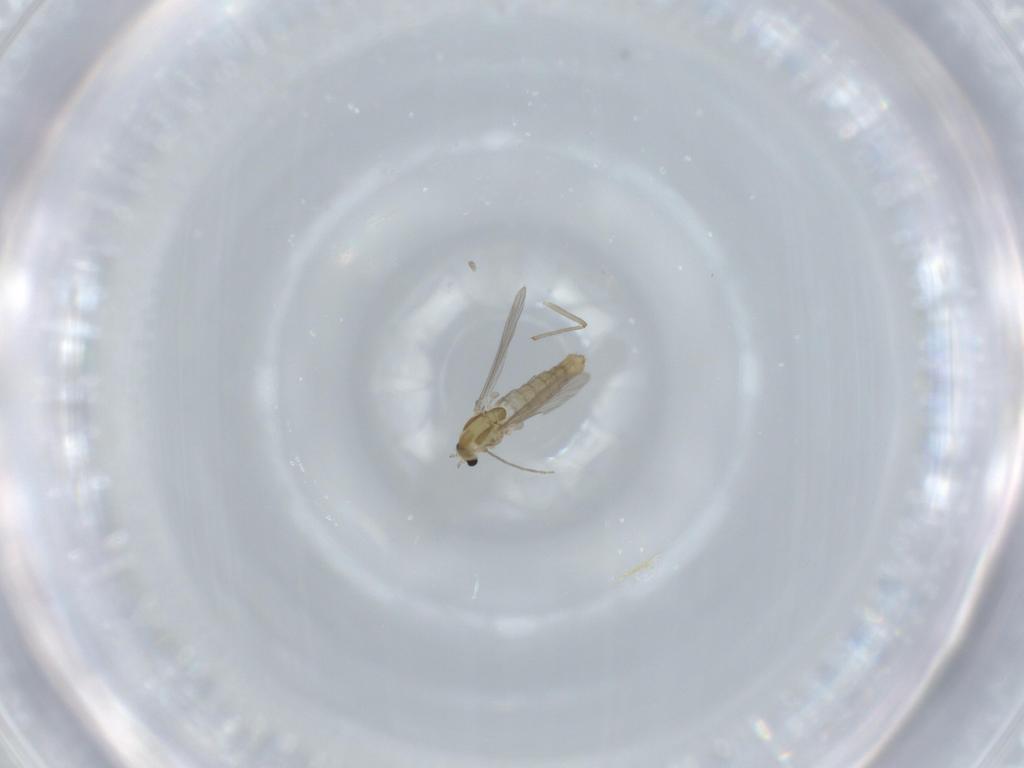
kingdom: Animalia
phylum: Arthropoda
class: Insecta
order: Diptera
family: Chironomidae
